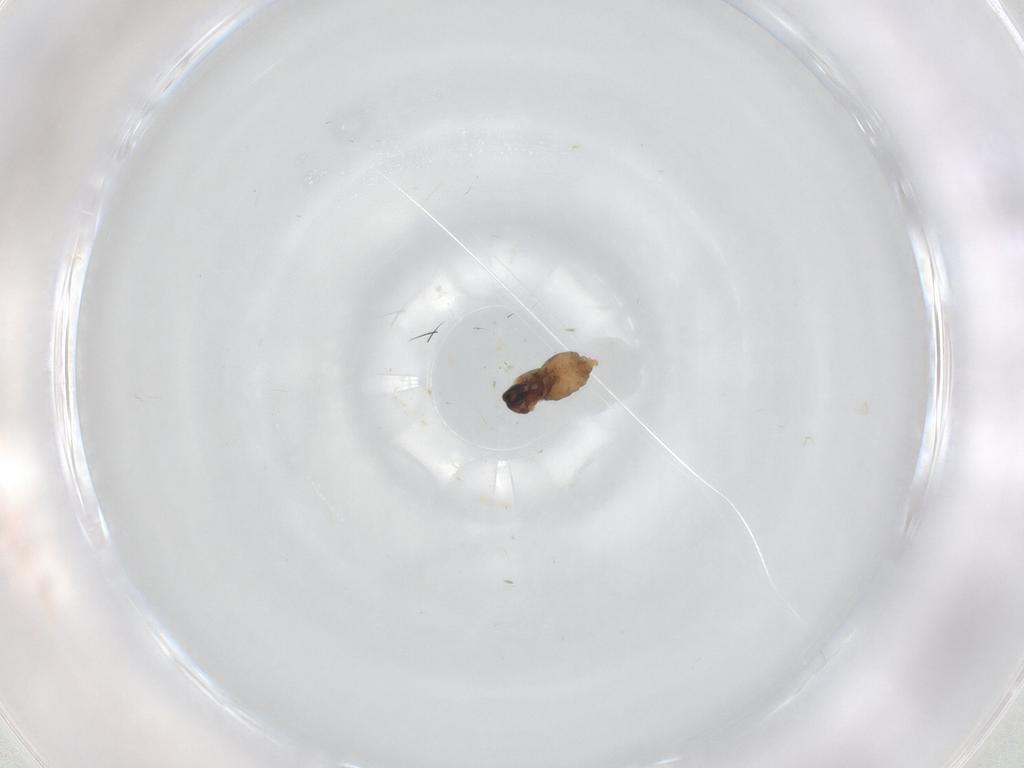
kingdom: Animalia
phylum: Arthropoda
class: Insecta
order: Diptera
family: Cecidomyiidae
